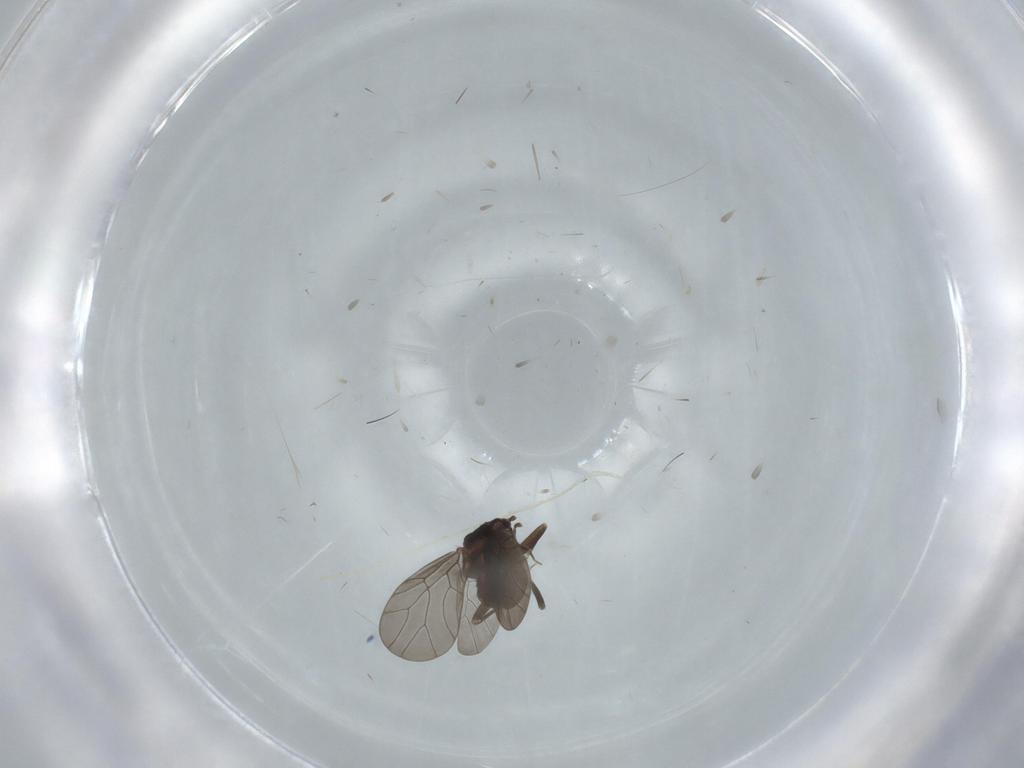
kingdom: Animalia
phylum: Arthropoda
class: Insecta
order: Psocodea
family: Lepidopsocidae
